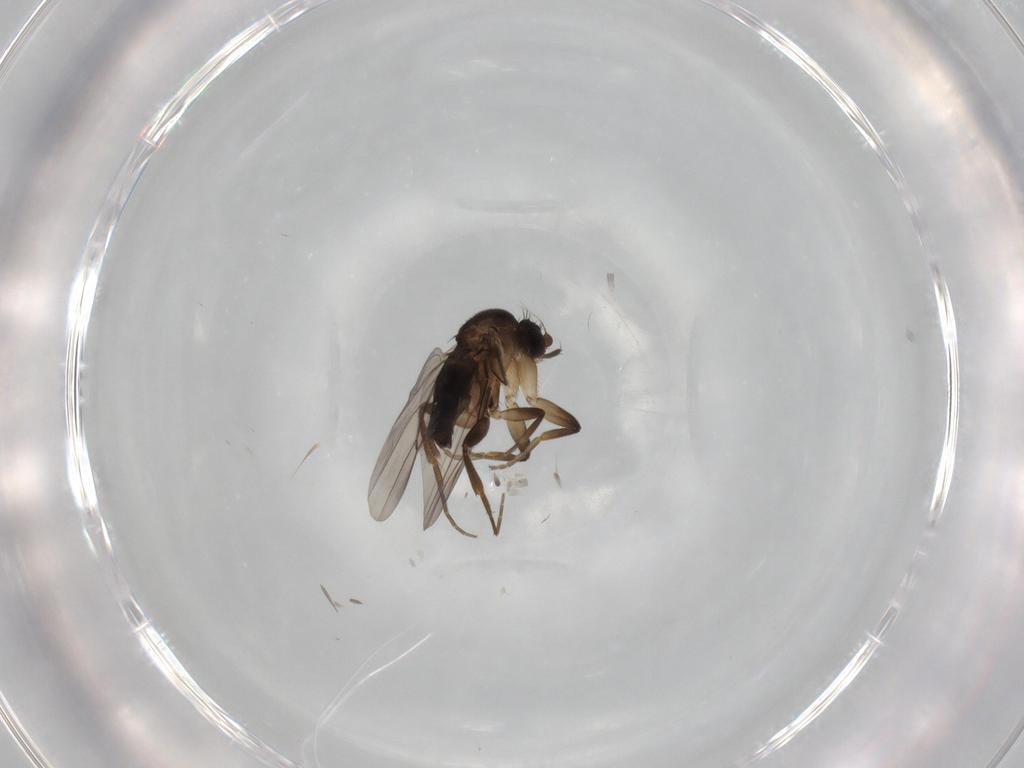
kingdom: Animalia
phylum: Arthropoda
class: Insecta
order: Diptera
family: Phoridae
